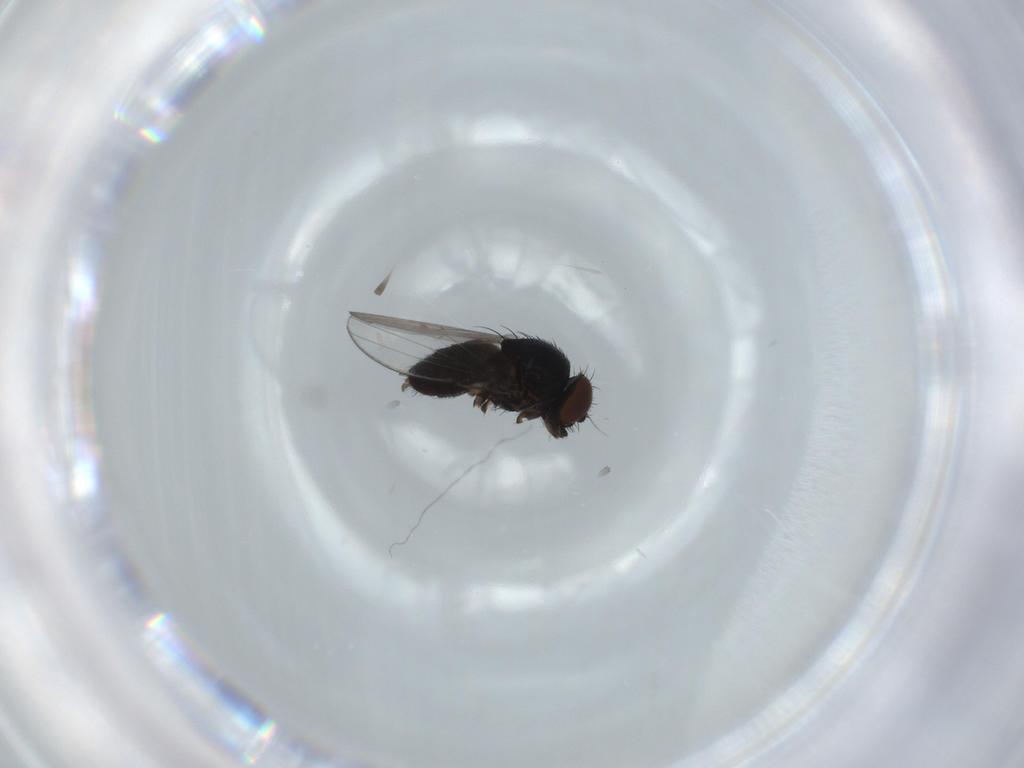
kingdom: Animalia
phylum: Arthropoda
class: Insecta
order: Diptera
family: Milichiidae
